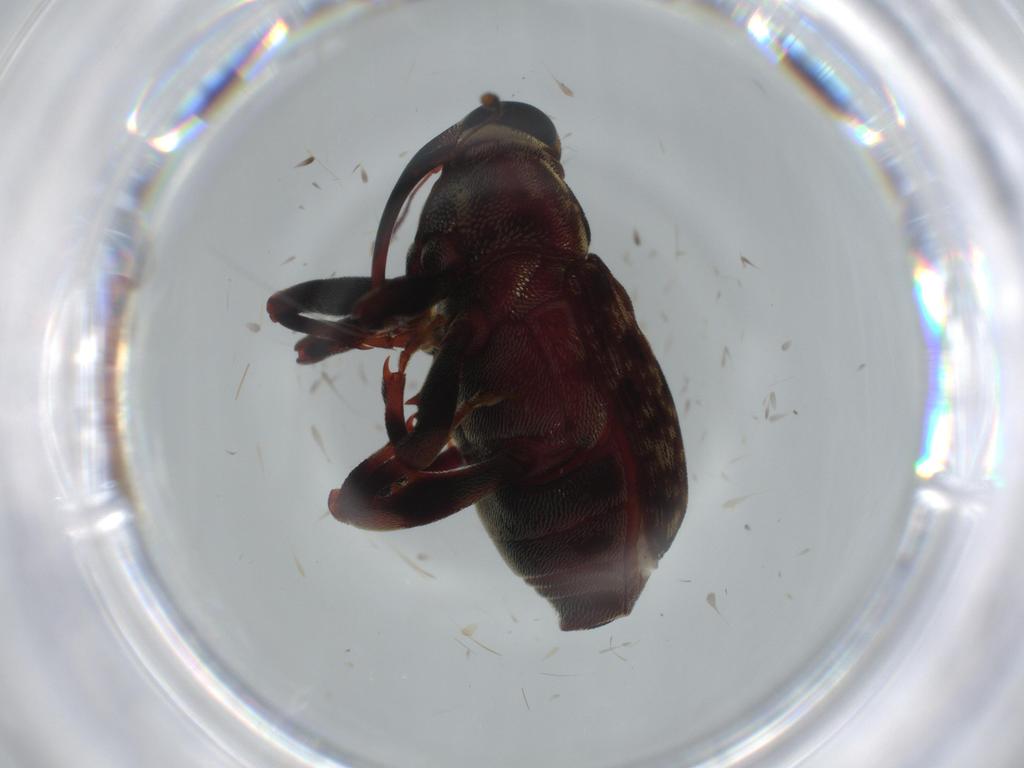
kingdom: Animalia
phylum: Arthropoda
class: Insecta
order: Coleoptera
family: Curculionidae
